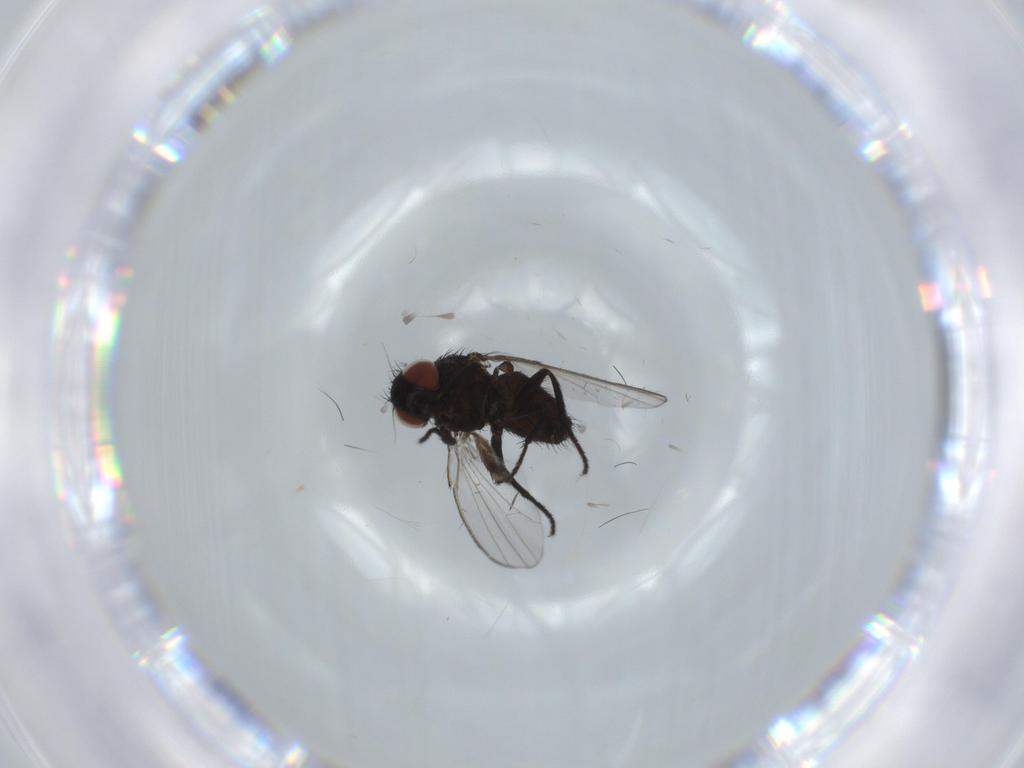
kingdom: Animalia
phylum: Arthropoda
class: Insecta
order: Diptera
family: Milichiidae
